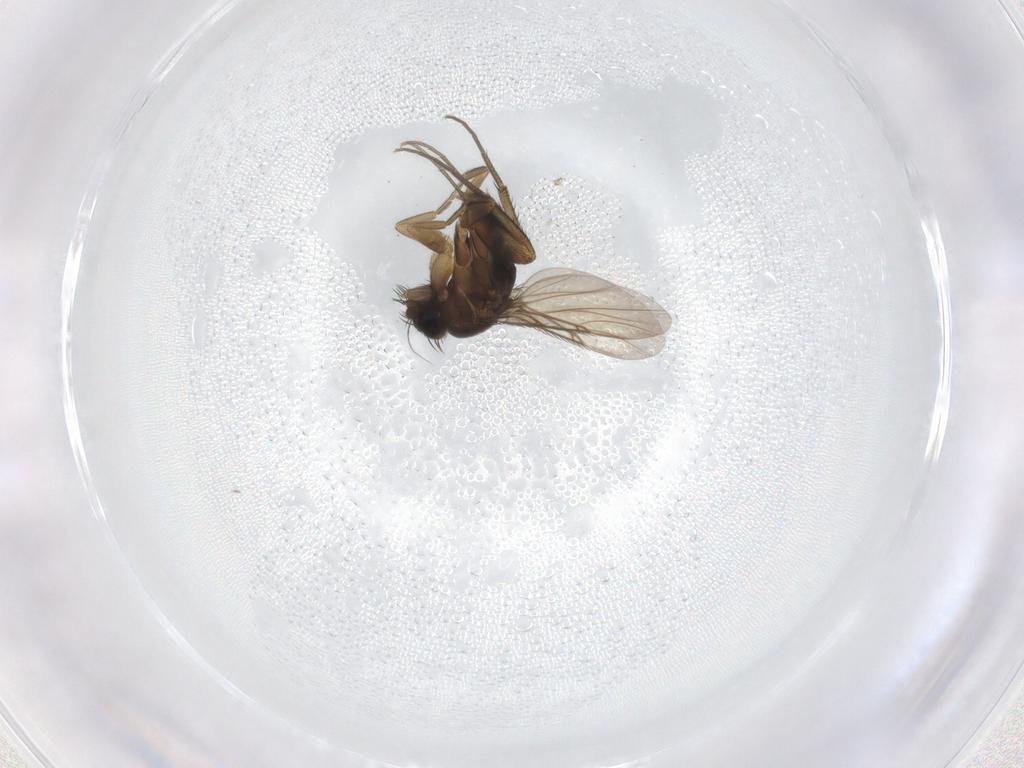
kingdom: Animalia
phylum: Arthropoda
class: Insecta
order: Diptera
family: Phoridae
